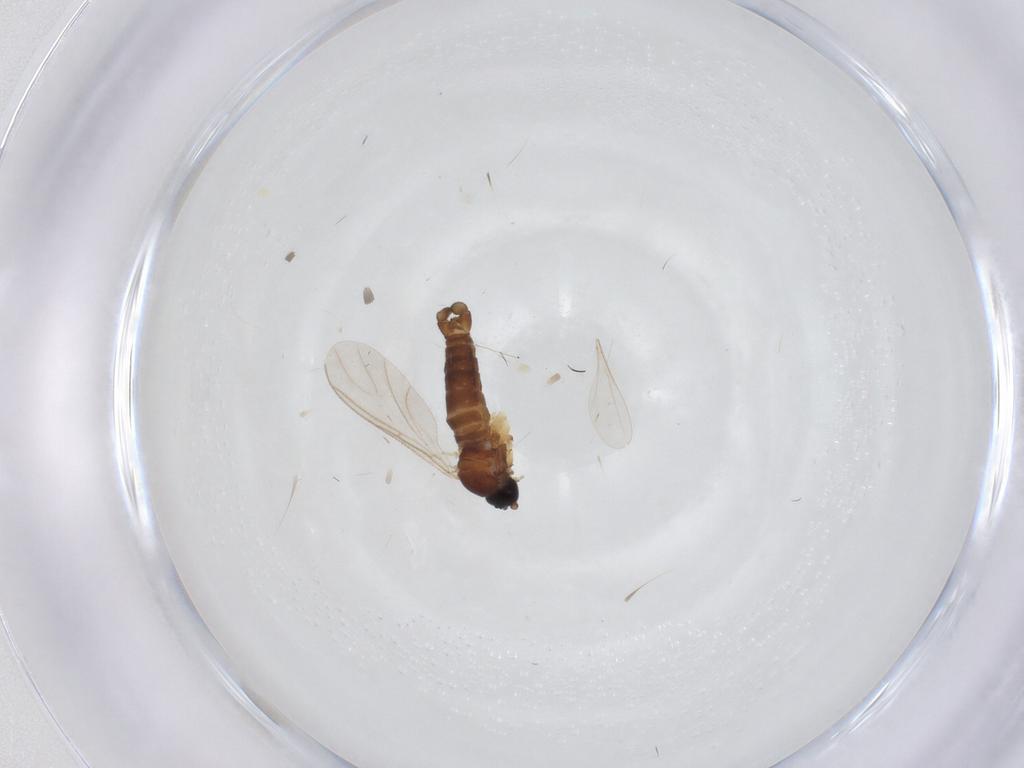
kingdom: Animalia
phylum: Arthropoda
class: Insecta
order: Diptera
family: Sciaridae
